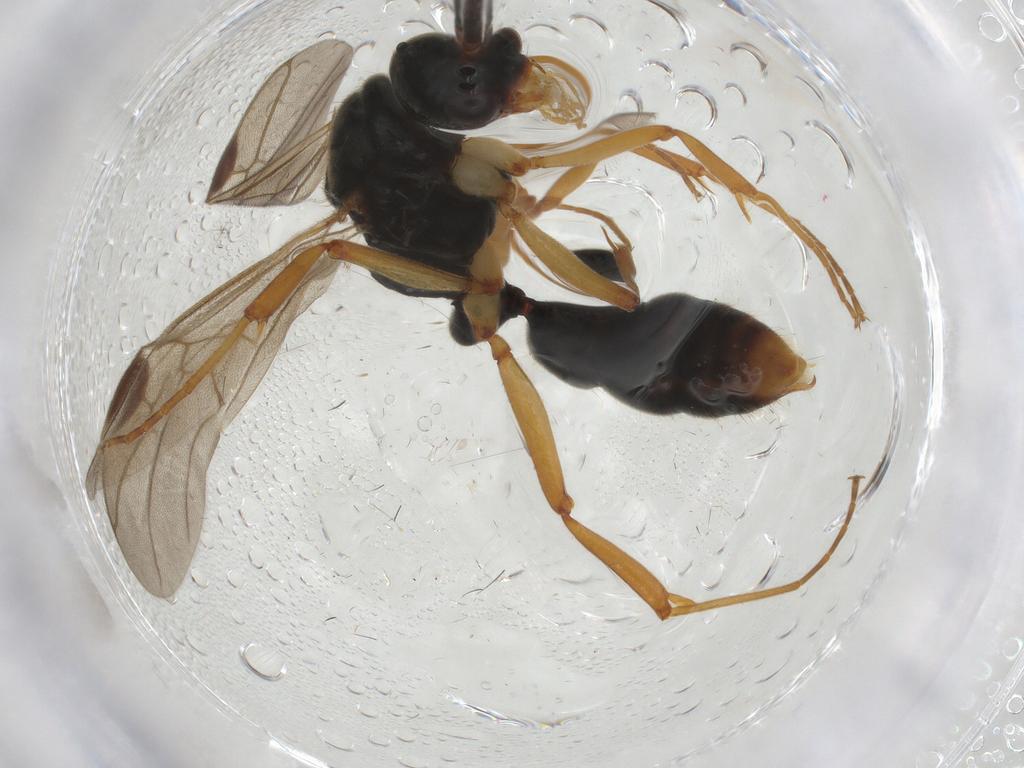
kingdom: Animalia
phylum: Arthropoda
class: Insecta
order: Hymenoptera
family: Formicidae
